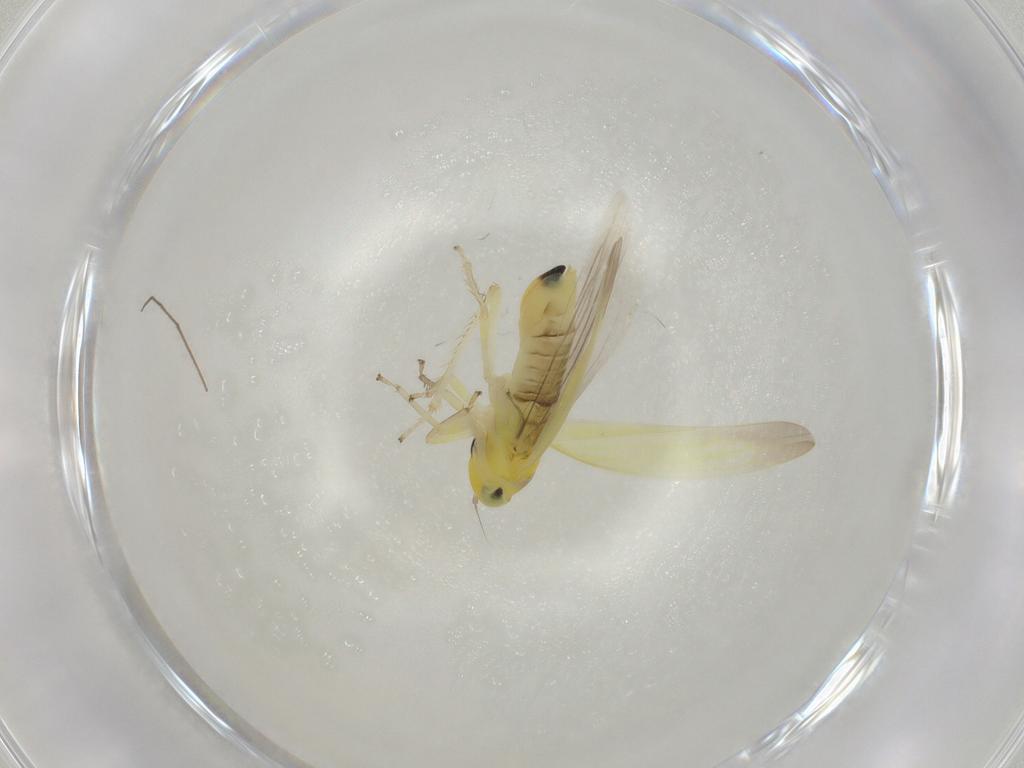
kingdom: Animalia
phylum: Arthropoda
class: Insecta
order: Hemiptera
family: Cicadellidae
